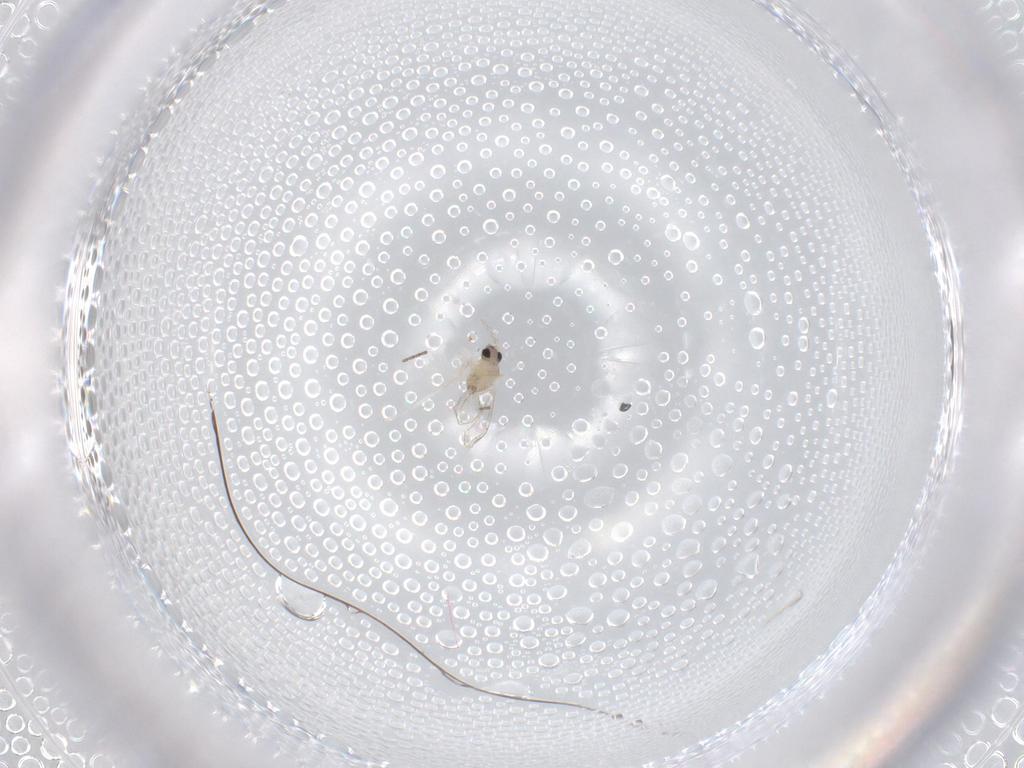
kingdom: Animalia
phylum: Arthropoda
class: Insecta
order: Diptera
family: Cecidomyiidae
